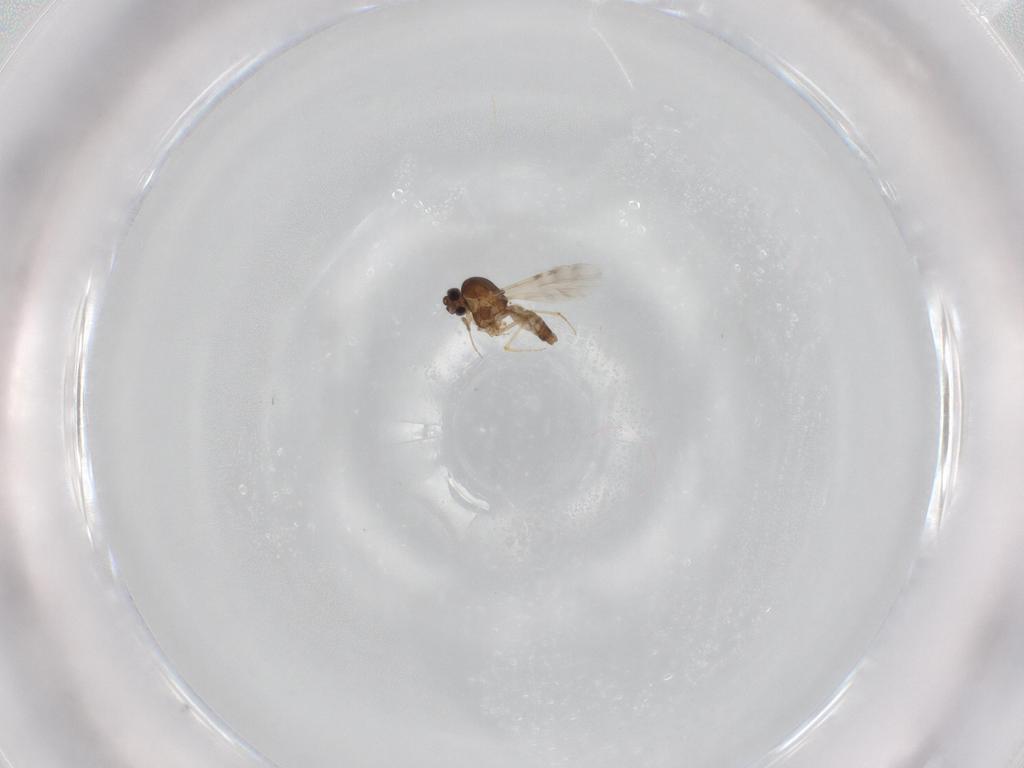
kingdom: Animalia
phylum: Arthropoda
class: Insecta
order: Diptera
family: Ceratopogonidae
